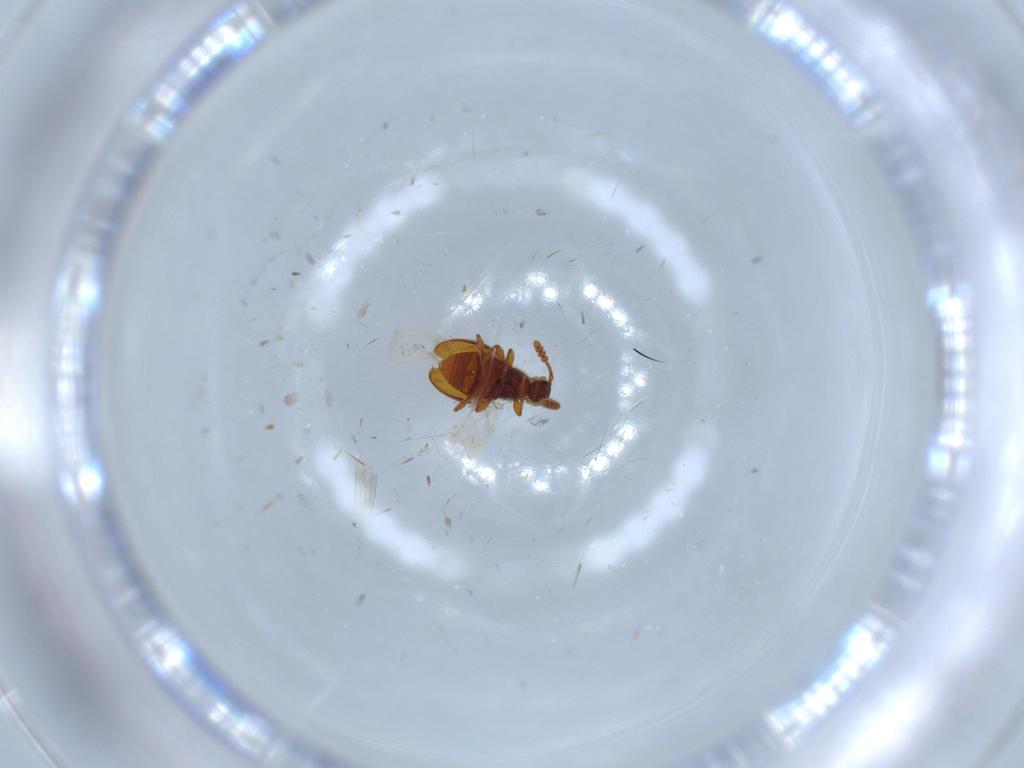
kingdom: Animalia
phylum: Arthropoda
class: Insecta
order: Coleoptera
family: Ptilodactylidae
